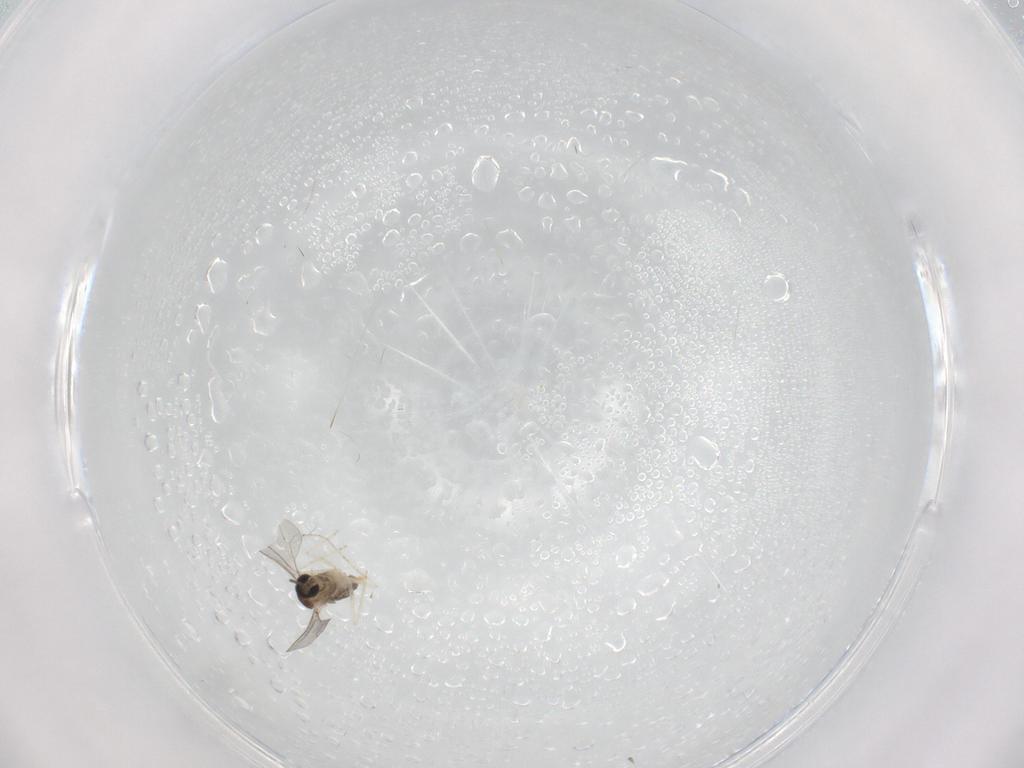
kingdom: Animalia
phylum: Arthropoda
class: Insecta
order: Diptera
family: Cecidomyiidae
